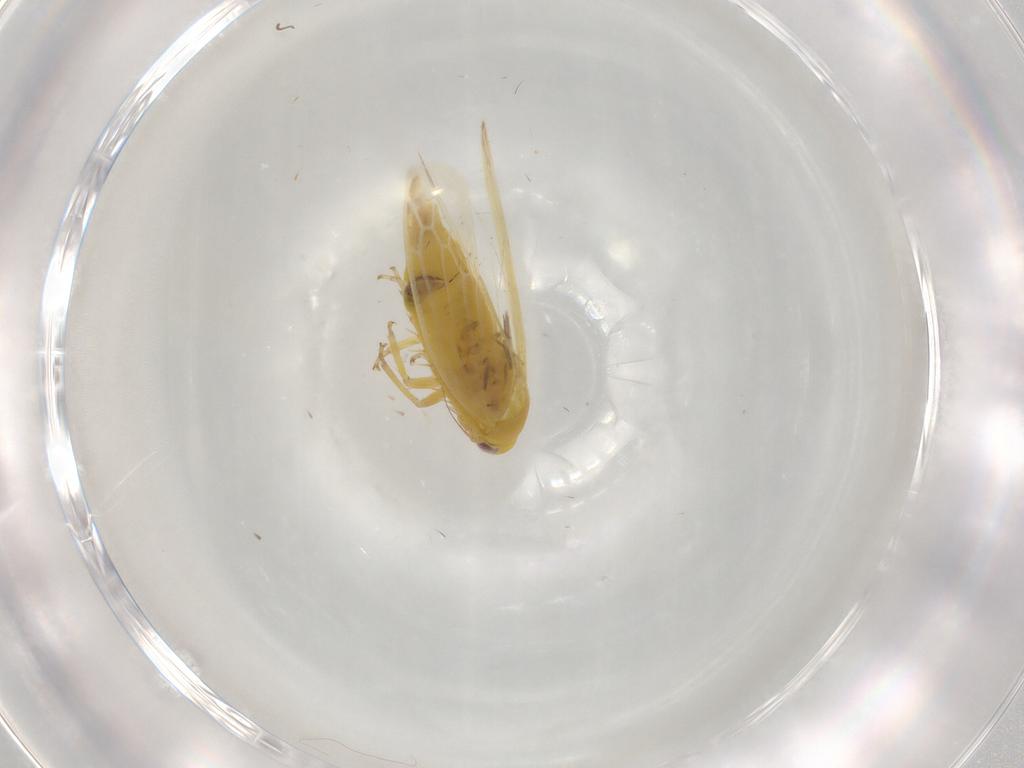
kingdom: Animalia
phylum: Arthropoda
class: Insecta
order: Hemiptera
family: Cicadellidae
